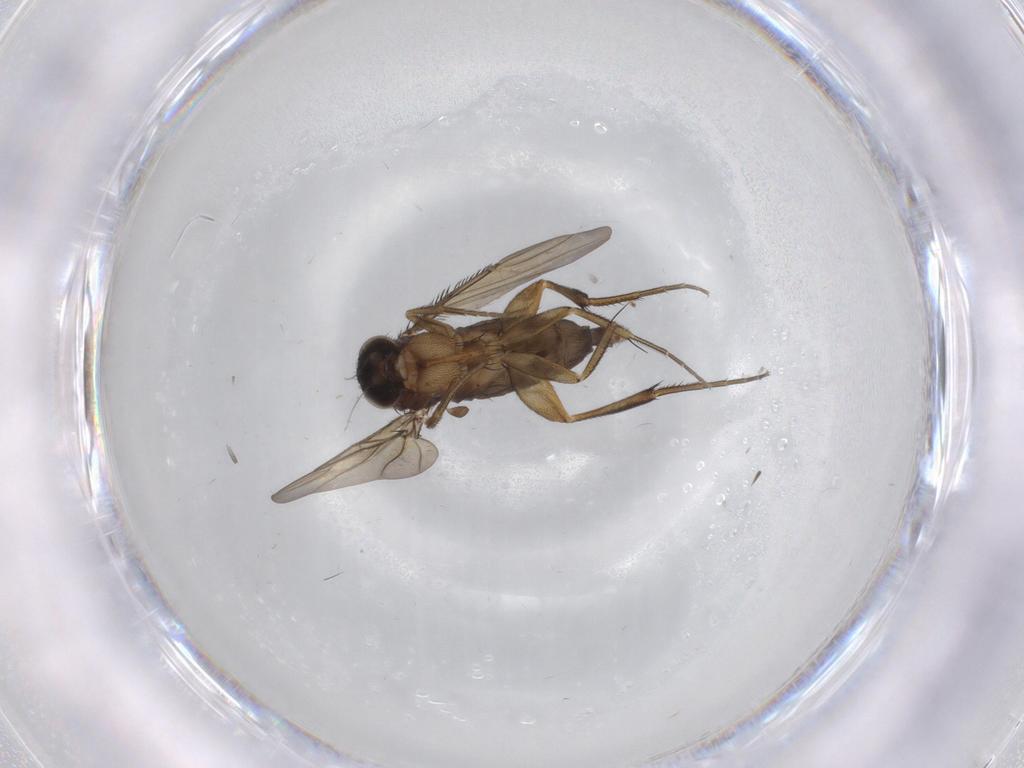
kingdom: Animalia
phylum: Arthropoda
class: Insecta
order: Diptera
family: Phoridae
